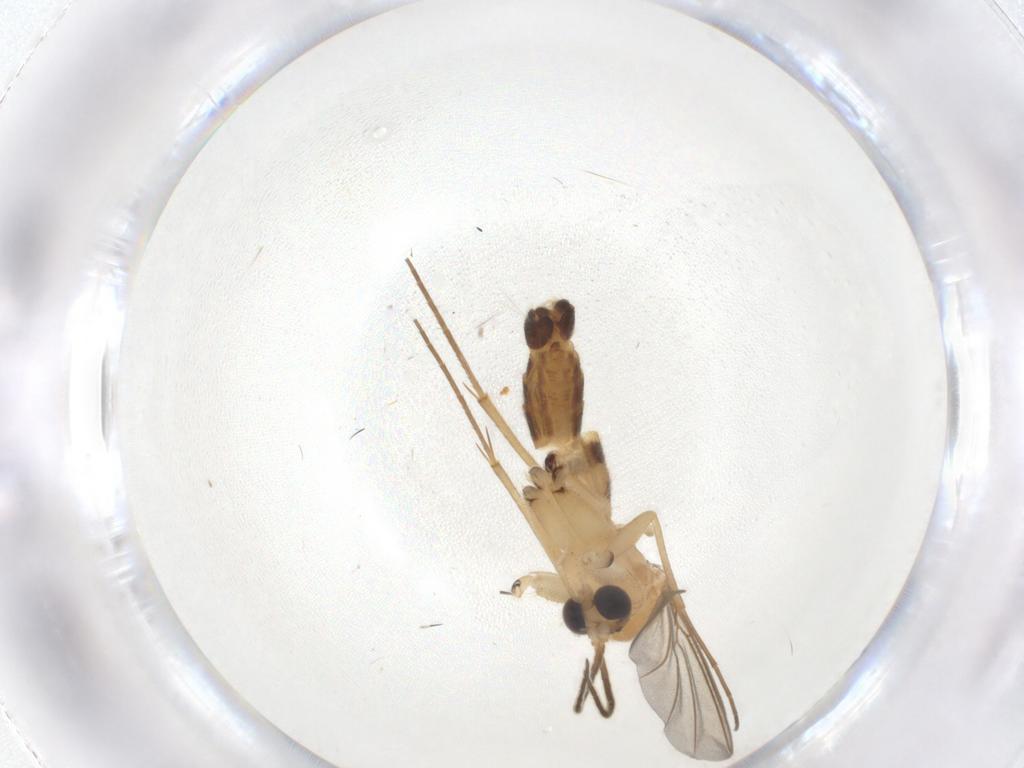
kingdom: Animalia
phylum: Arthropoda
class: Insecta
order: Diptera
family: Mycetophilidae
